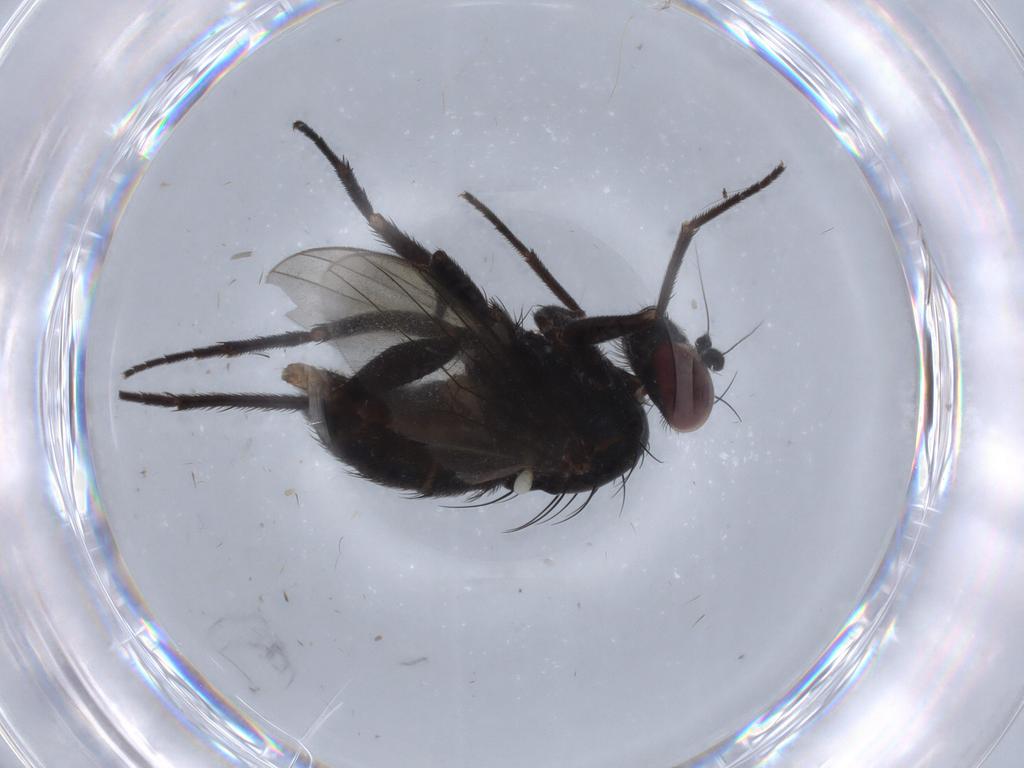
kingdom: Animalia
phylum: Arthropoda
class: Insecta
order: Diptera
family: Dolichopodidae
